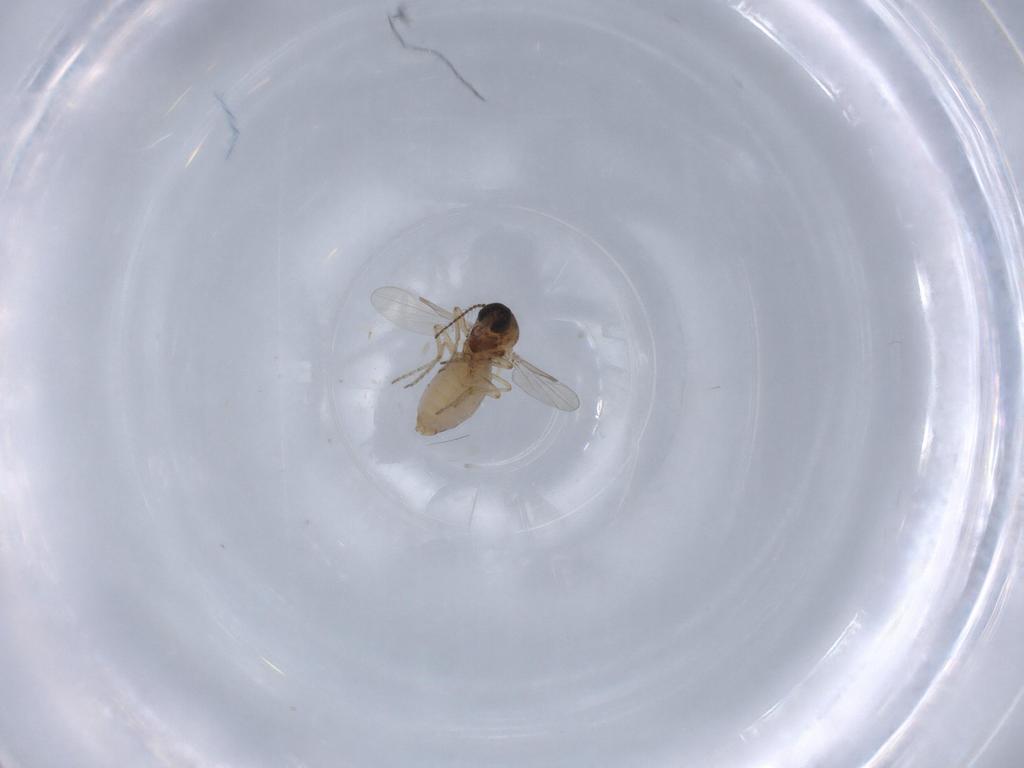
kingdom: Animalia
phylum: Arthropoda
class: Insecta
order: Diptera
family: Ceratopogonidae
